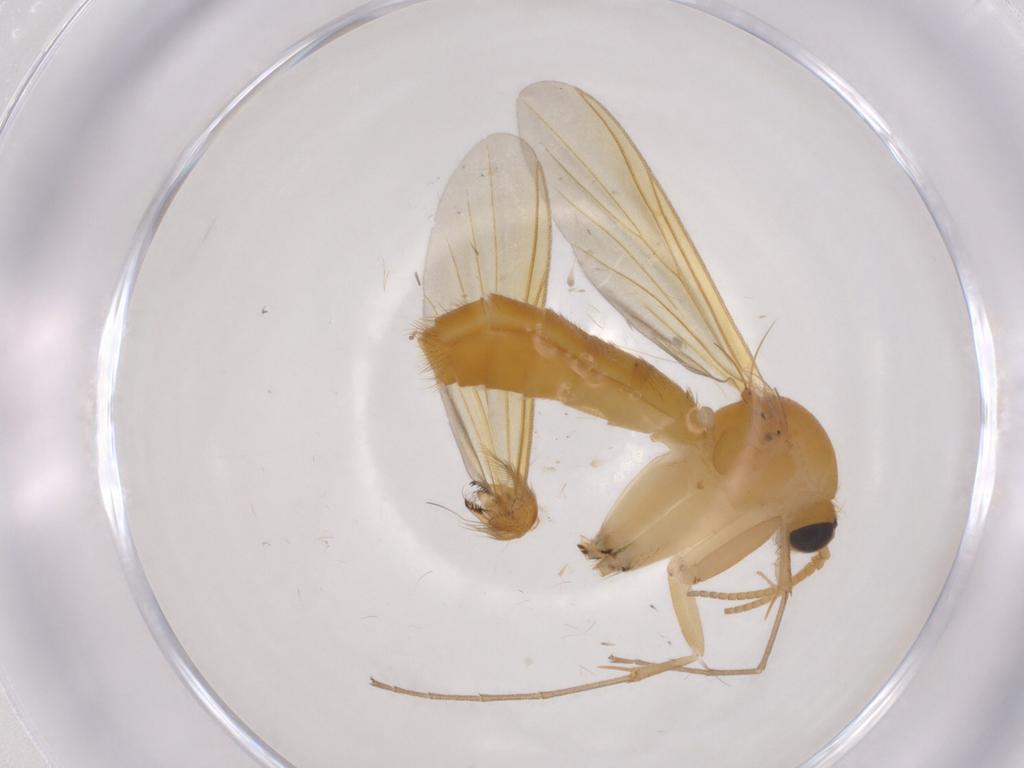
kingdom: Animalia
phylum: Arthropoda
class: Insecta
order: Diptera
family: Mycetophilidae
